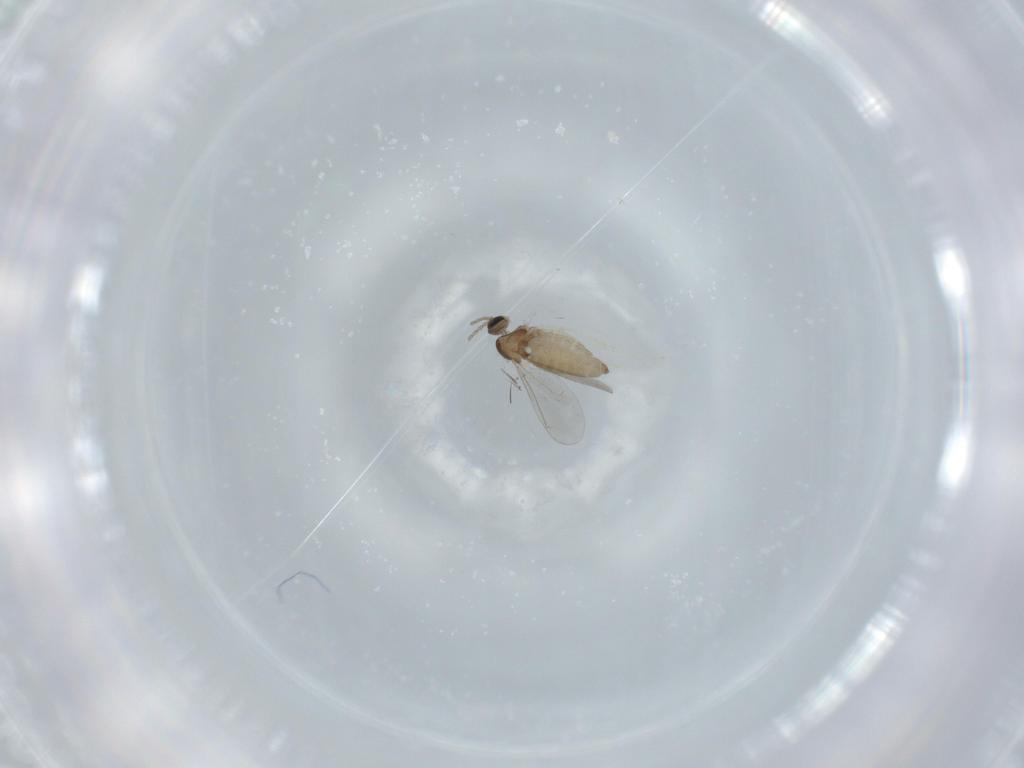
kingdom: Animalia
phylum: Arthropoda
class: Insecta
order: Diptera
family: Cecidomyiidae
